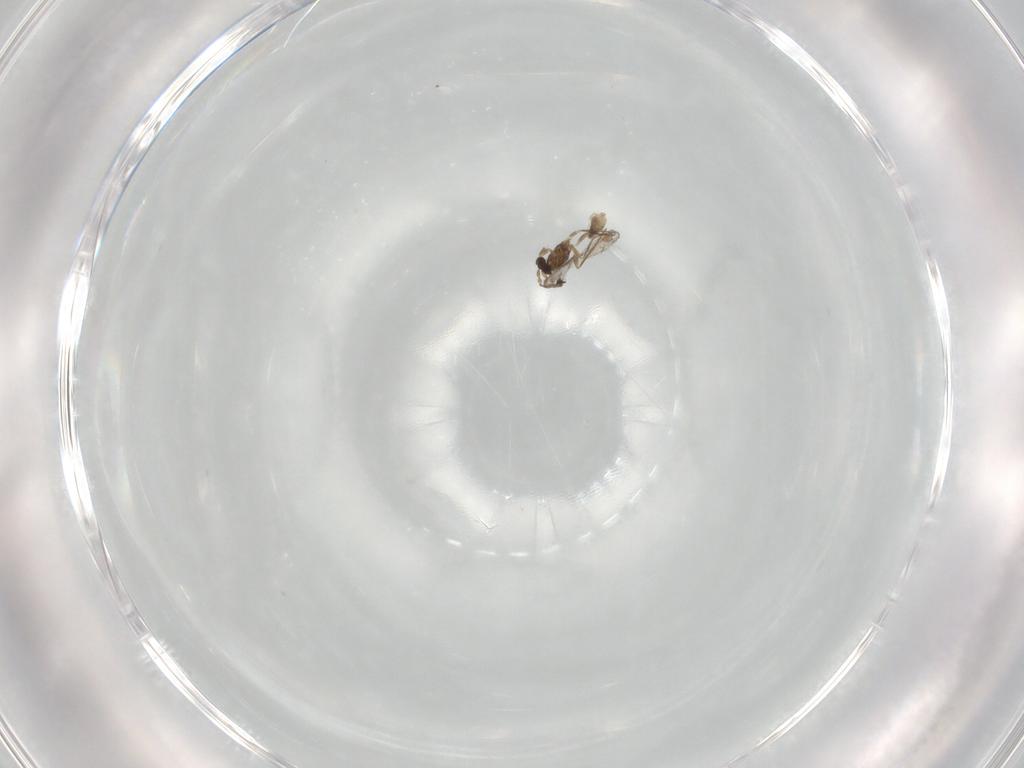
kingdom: Animalia
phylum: Arthropoda
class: Insecta
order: Hymenoptera
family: Mymaridae
